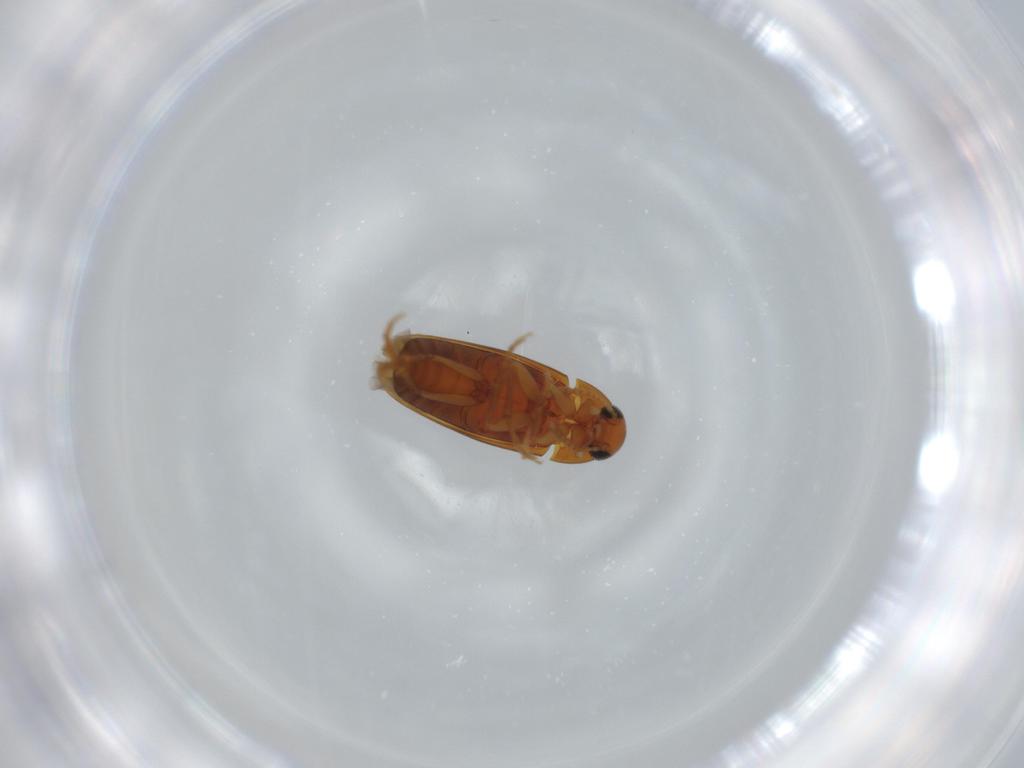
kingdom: Animalia
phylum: Arthropoda
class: Insecta
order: Coleoptera
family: Scraptiidae
